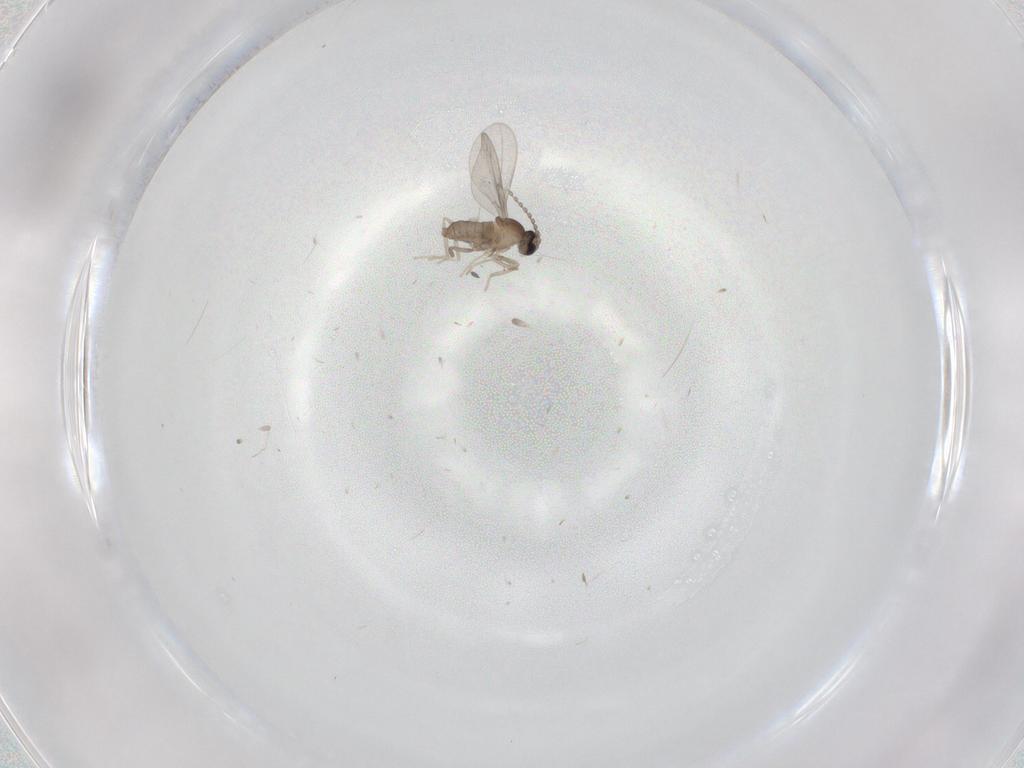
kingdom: Animalia
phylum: Arthropoda
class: Insecta
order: Diptera
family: Cecidomyiidae
